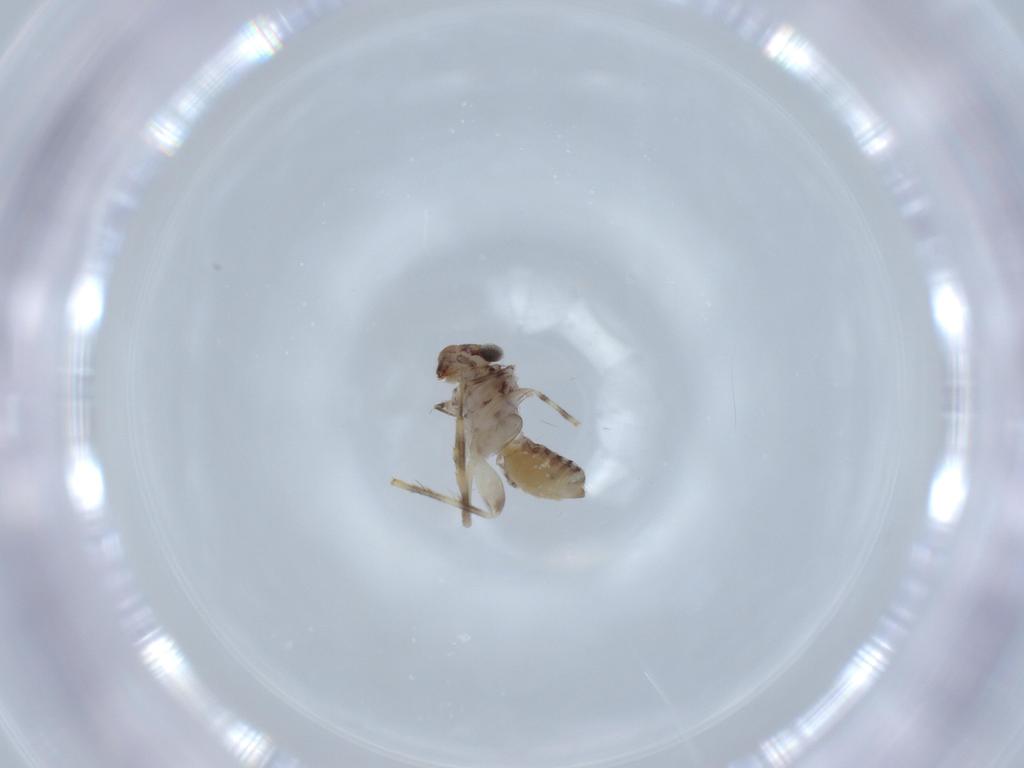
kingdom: Animalia
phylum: Arthropoda
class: Insecta
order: Psocodea
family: Lepidopsocidae
